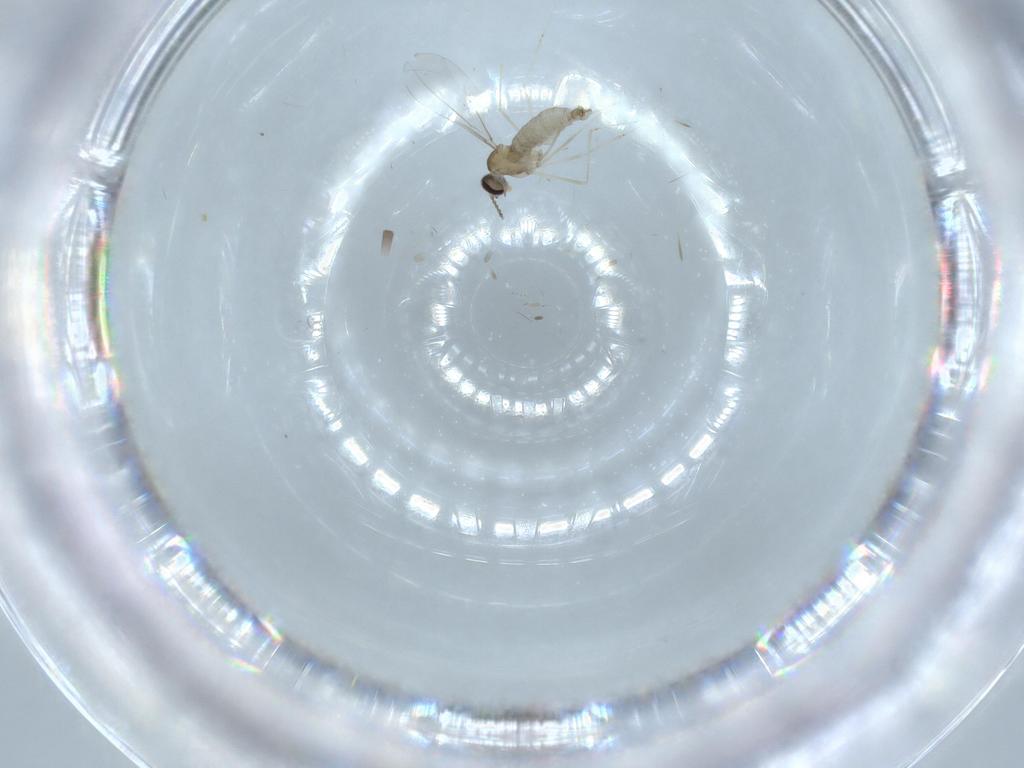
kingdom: Animalia
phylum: Arthropoda
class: Insecta
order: Diptera
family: Cecidomyiidae
